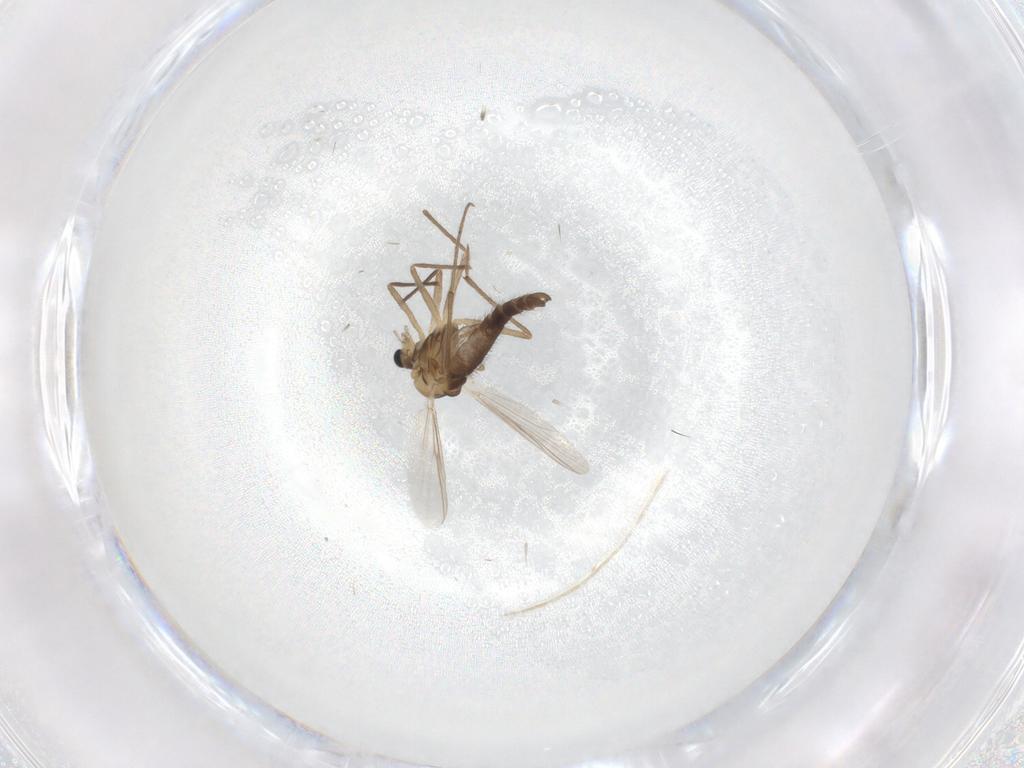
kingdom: Animalia
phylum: Arthropoda
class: Insecta
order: Diptera
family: Chironomidae
